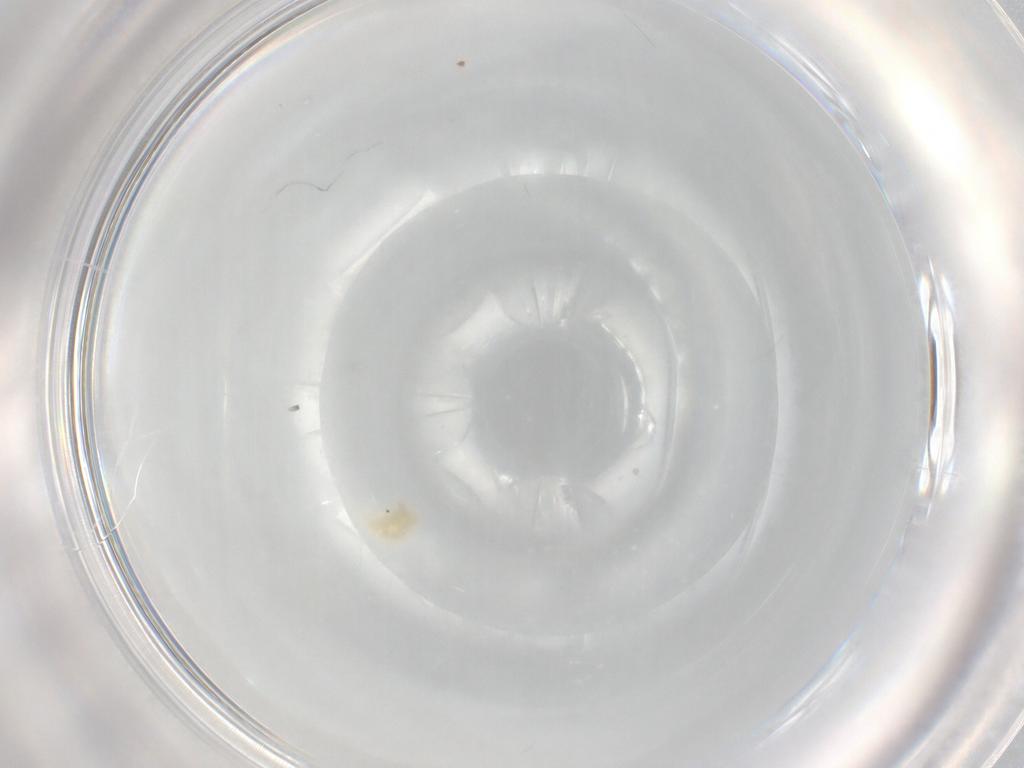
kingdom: Animalia
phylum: Arthropoda
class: Arachnida
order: Trombidiformes
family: Eupodidae
